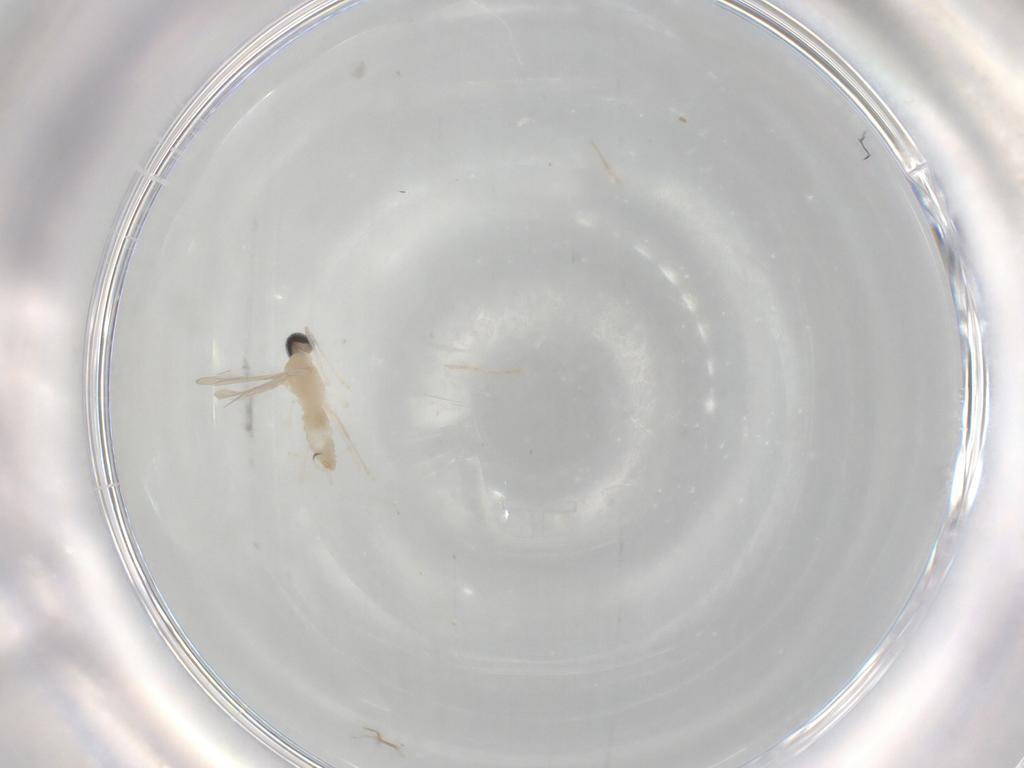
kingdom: Animalia
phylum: Arthropoda
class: Insecta
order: Diptera
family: Cecidomyiidae
